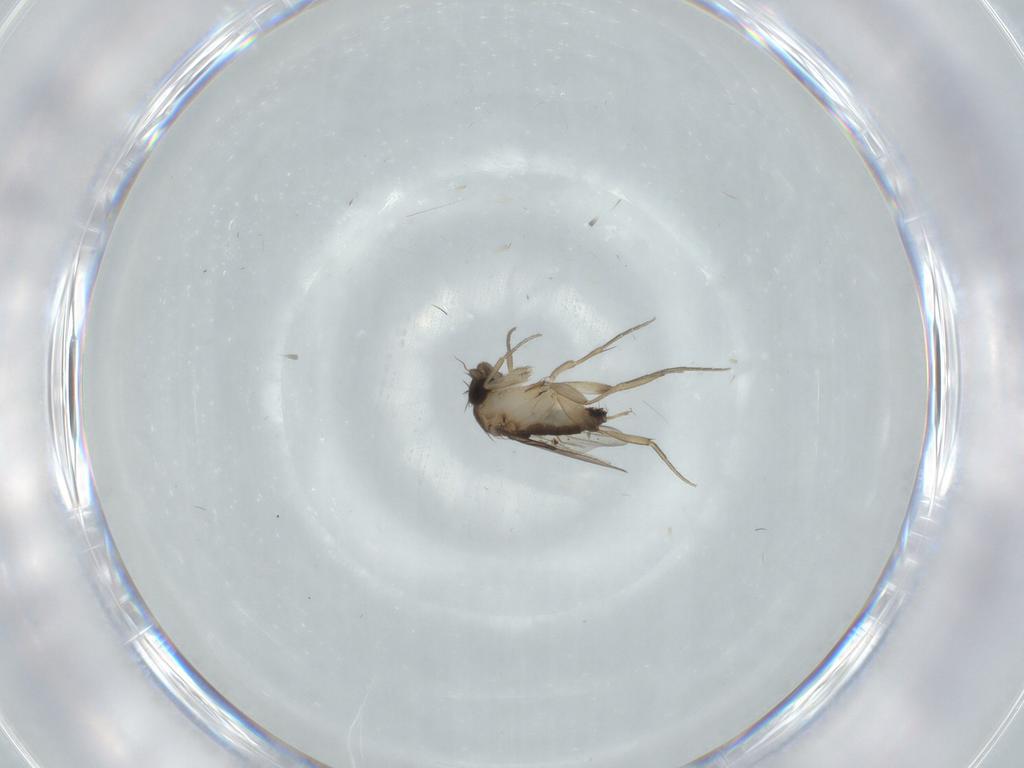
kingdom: Animalia
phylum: Arthropoda
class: Insecta
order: Diptera
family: Phoridae
